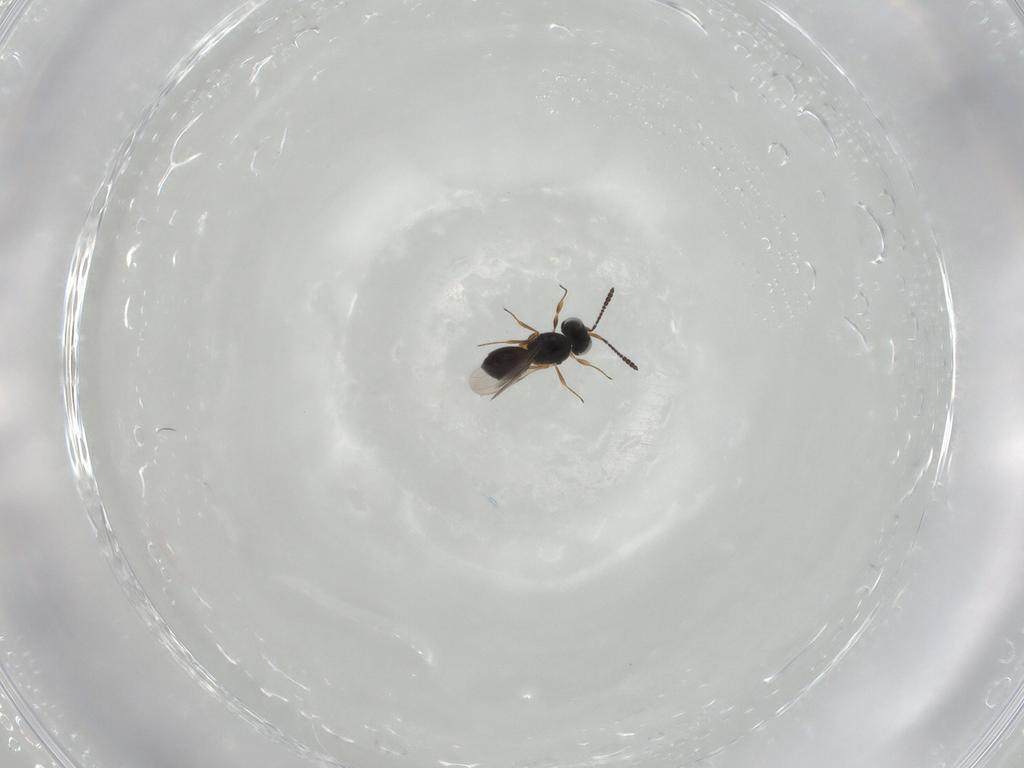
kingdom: Animalia
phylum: Arthropoda
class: Insecta
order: Hymenoptera
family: Scelionidae
